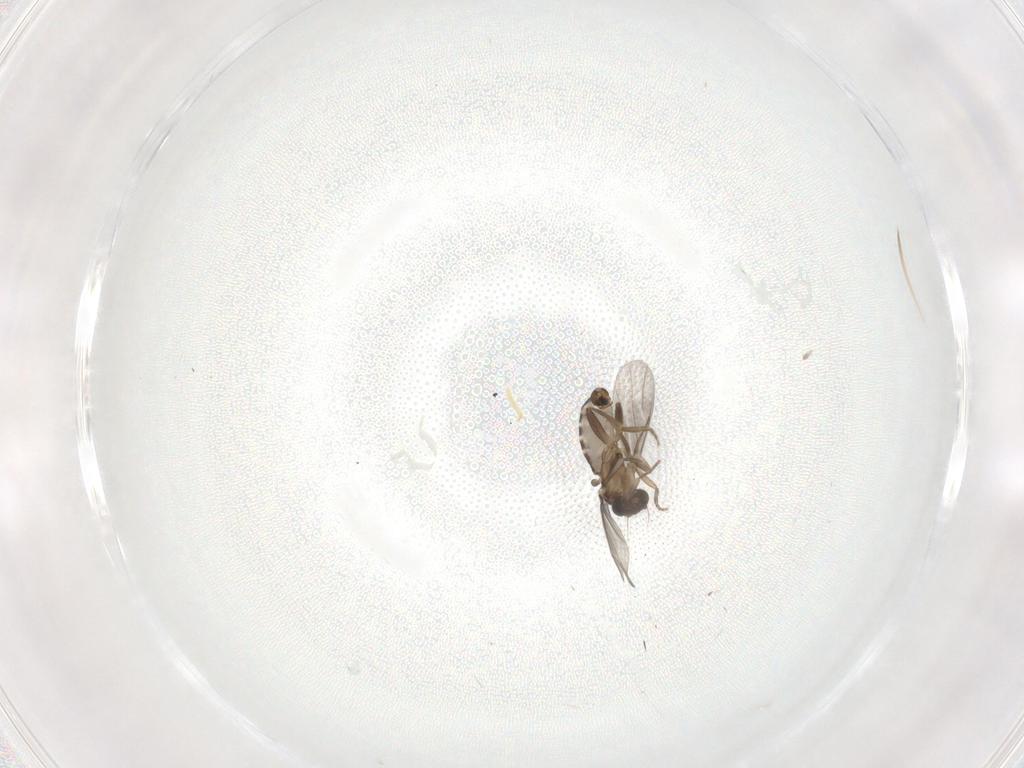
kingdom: Animalia
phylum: Arthropoda
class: Insecta
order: Diptera
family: Cecidomyiidae
